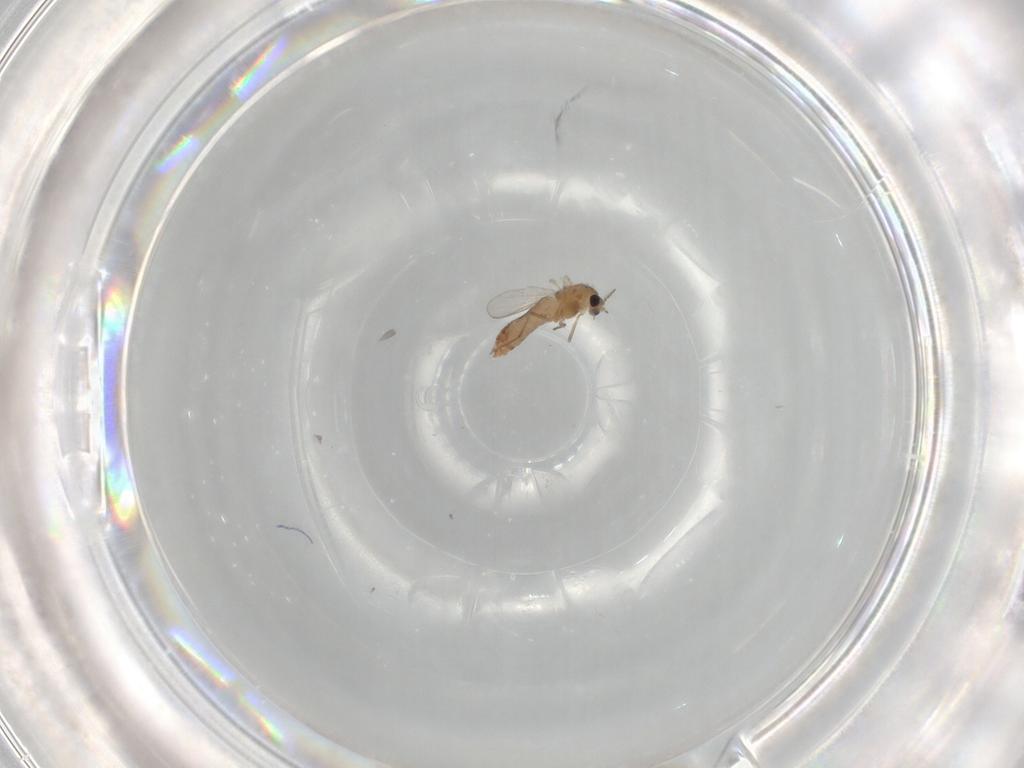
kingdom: Animalia
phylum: Arthropoda
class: Insecta
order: Diptera
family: Chironomidae
